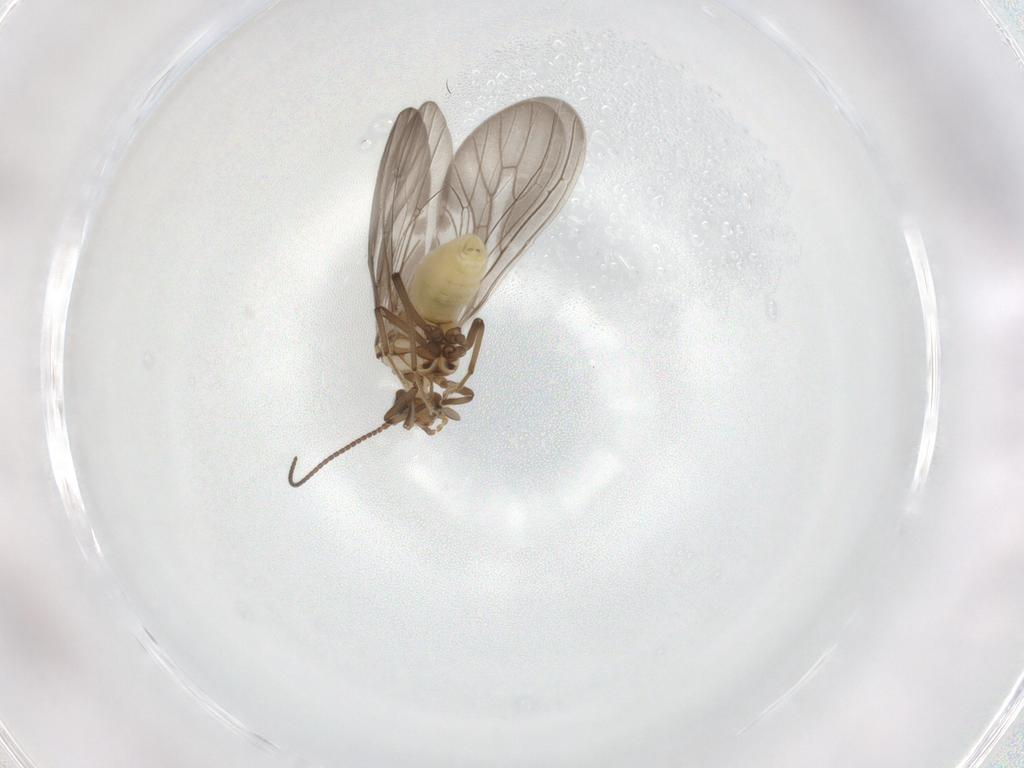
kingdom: Animalia
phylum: Arthropoda
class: Insecta
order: Neuroptera
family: Coniopterygidae
